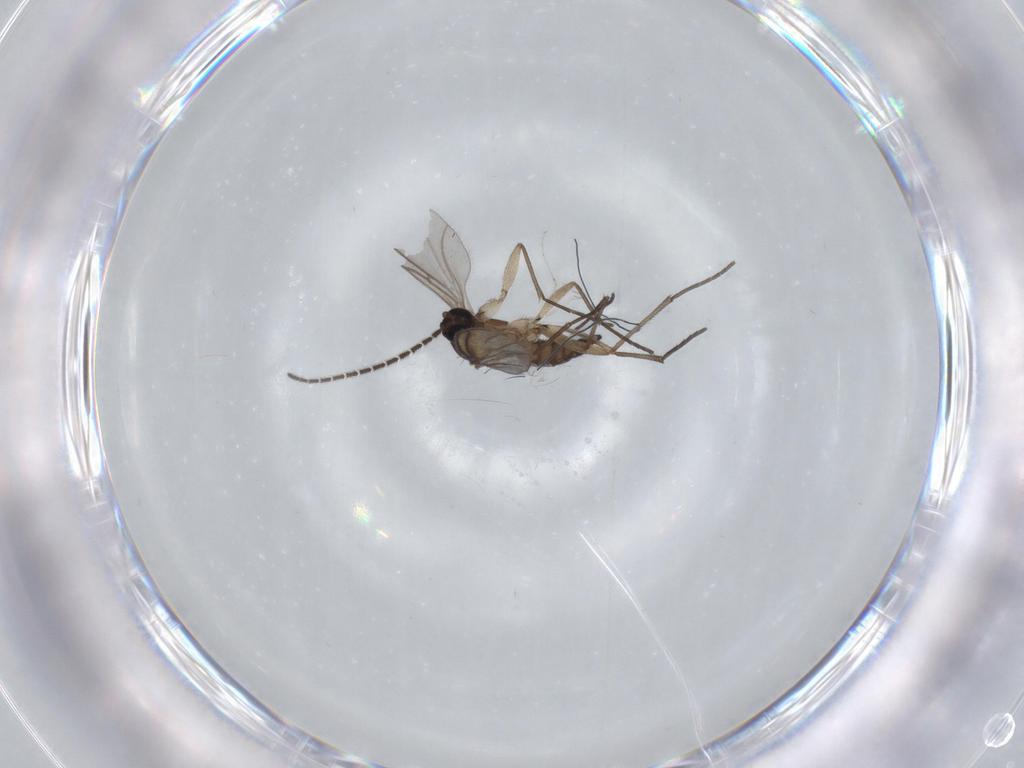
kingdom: Animalia
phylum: Arthropoda
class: Insecta
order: Diptera
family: Sciaridae
